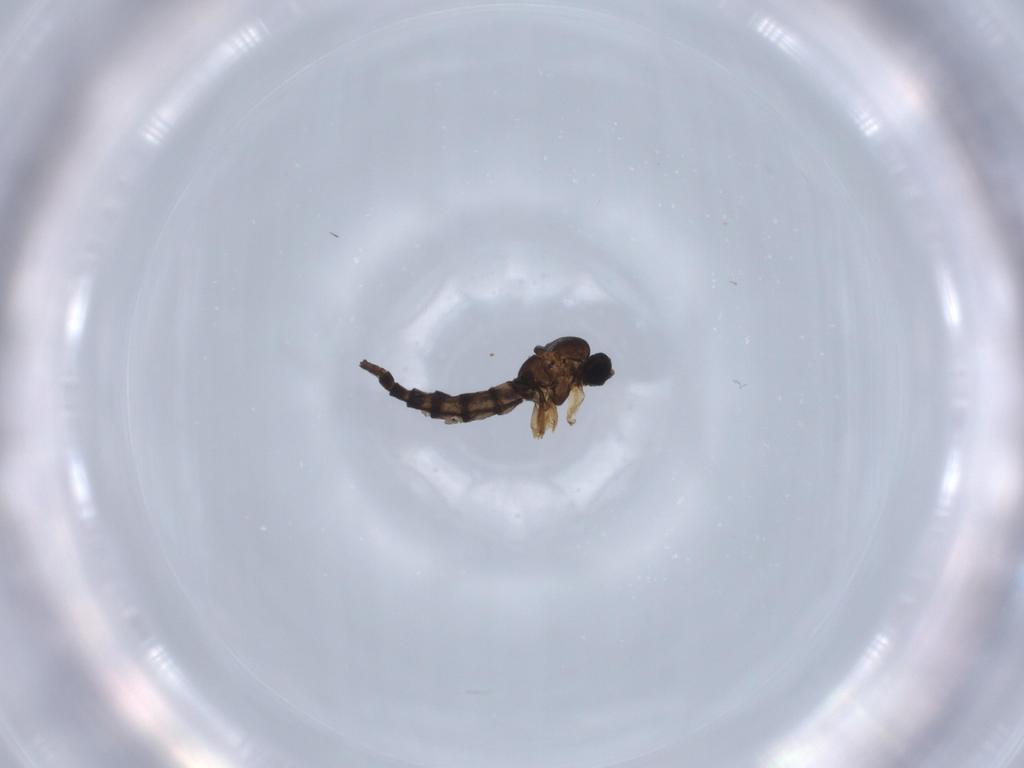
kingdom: Animalia
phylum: Arthropoda
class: Insecta
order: Diptera
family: Sciaridae
